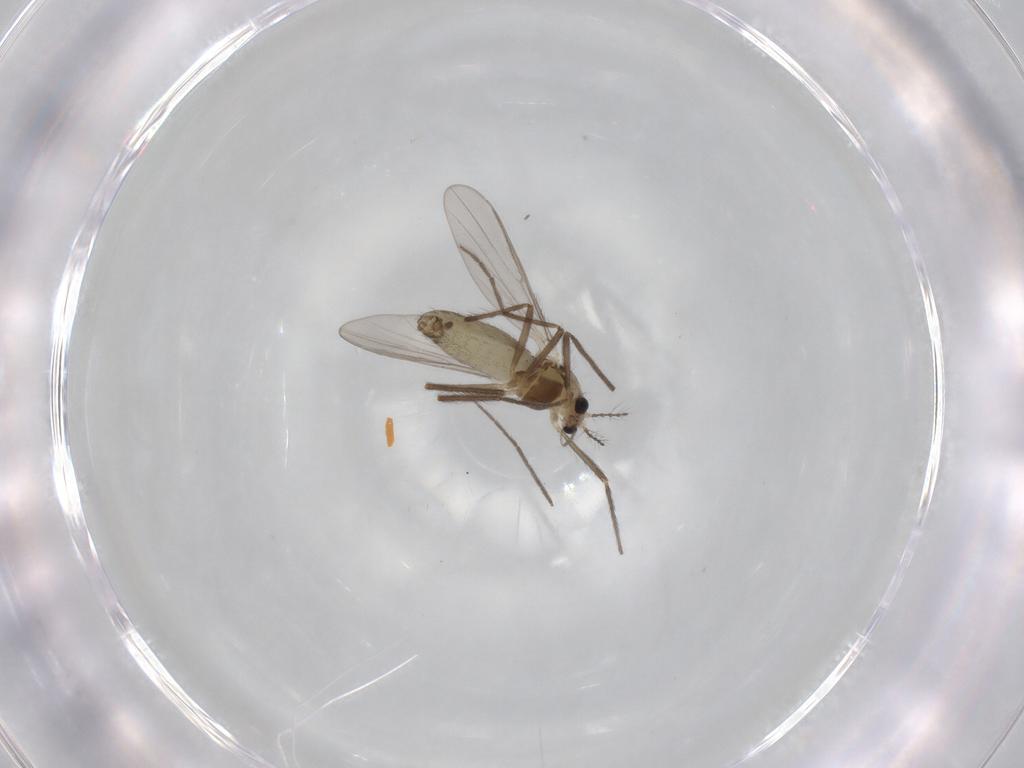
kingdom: Animalia
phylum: Arthropoda
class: Insecta
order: Diptera
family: Chironomidae
